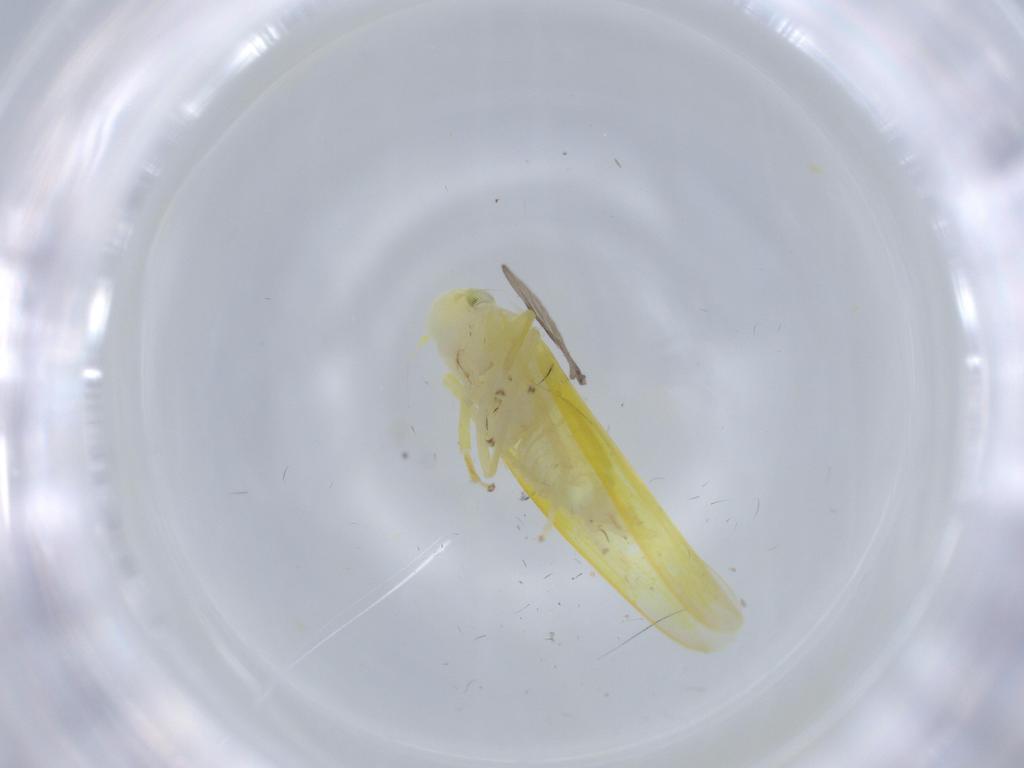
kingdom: Animalia
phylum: Arthropoda
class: Insecta
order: Hemiptera
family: Cicadellidae
